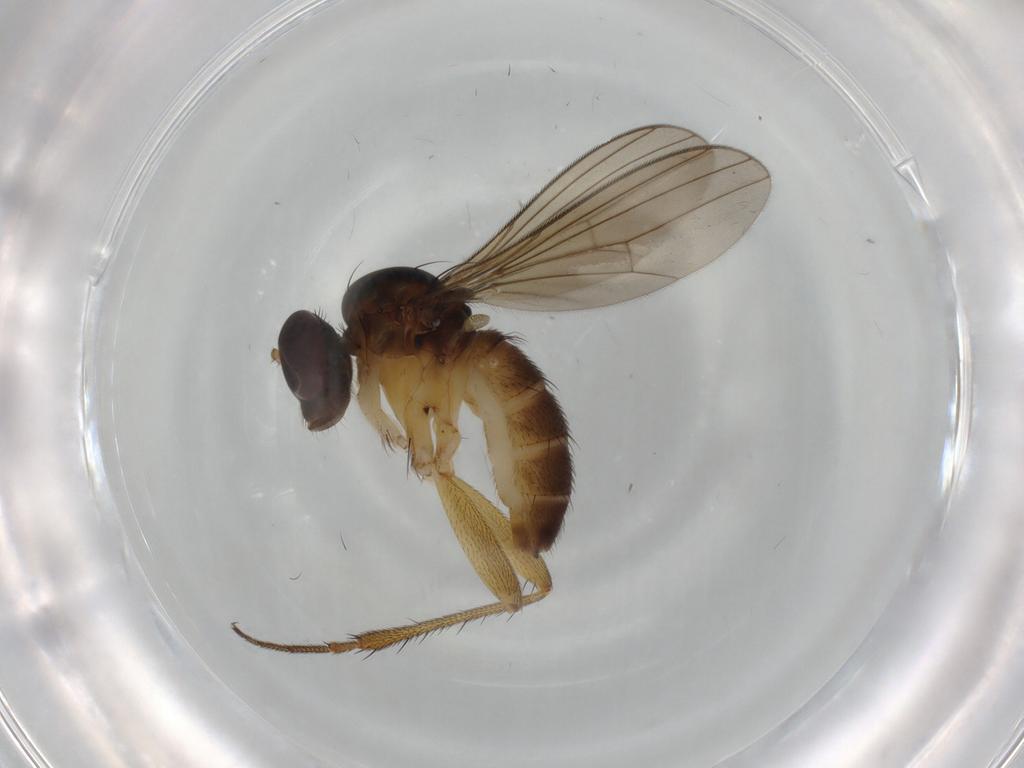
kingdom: Animalia
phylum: Arthropoda
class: Insecta
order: Diptera
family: Dolichopodidae
